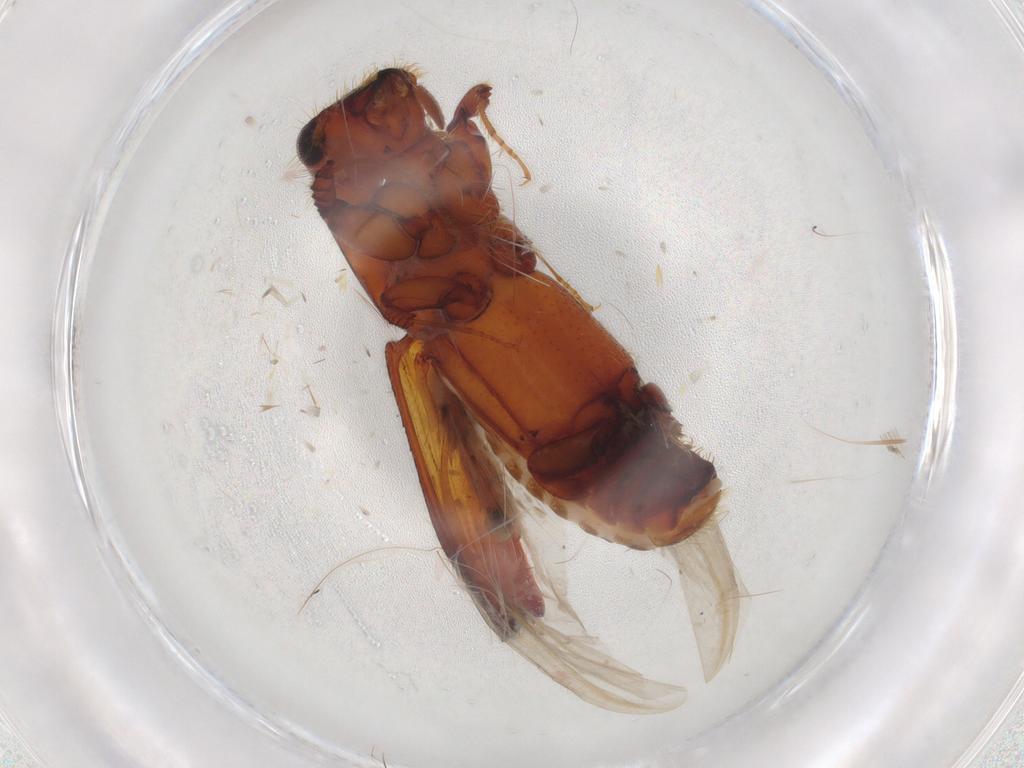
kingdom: Animalia
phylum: Arthropoda
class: Insecta
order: Coleoptera
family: Curculionidae
